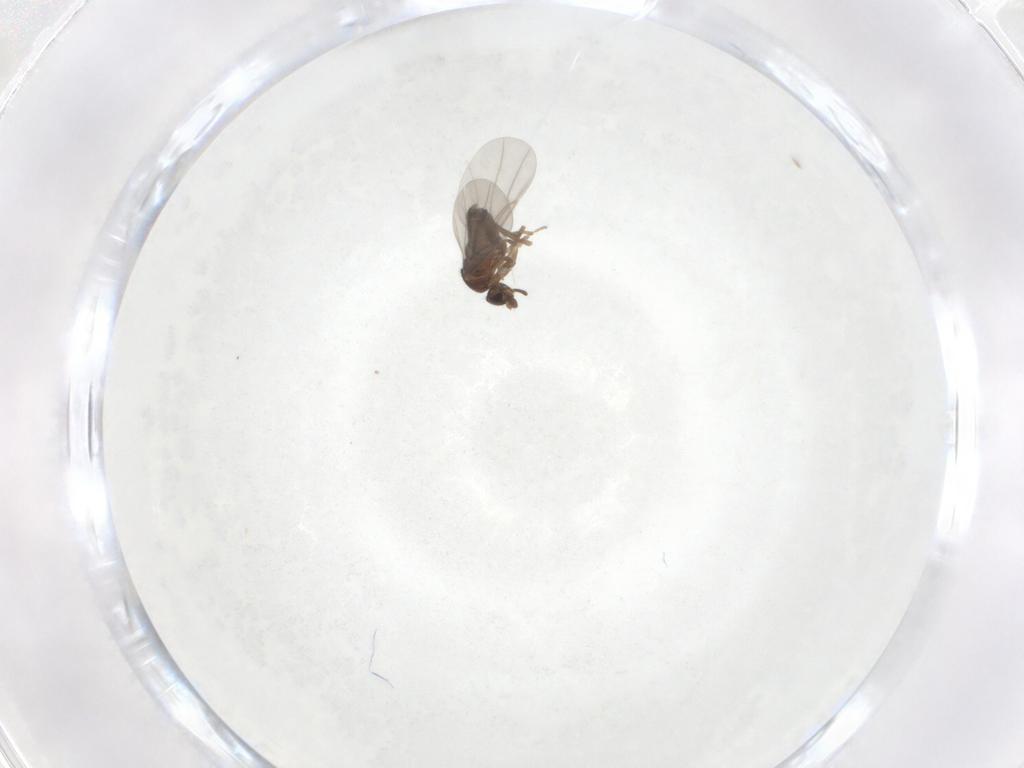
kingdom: Animalia
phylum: Arthropoda
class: Insecta
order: Diptera
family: Phoridae
